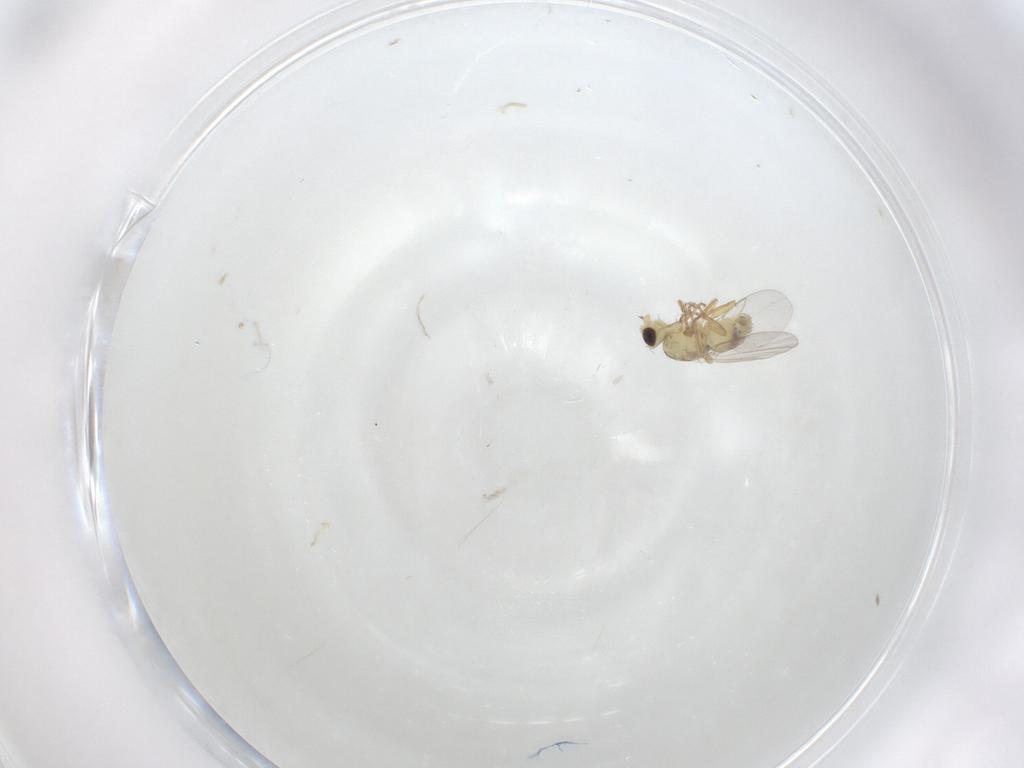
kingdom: Animalia
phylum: Arthropoda
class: Insecta
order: Diptera
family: Agromyzidae
